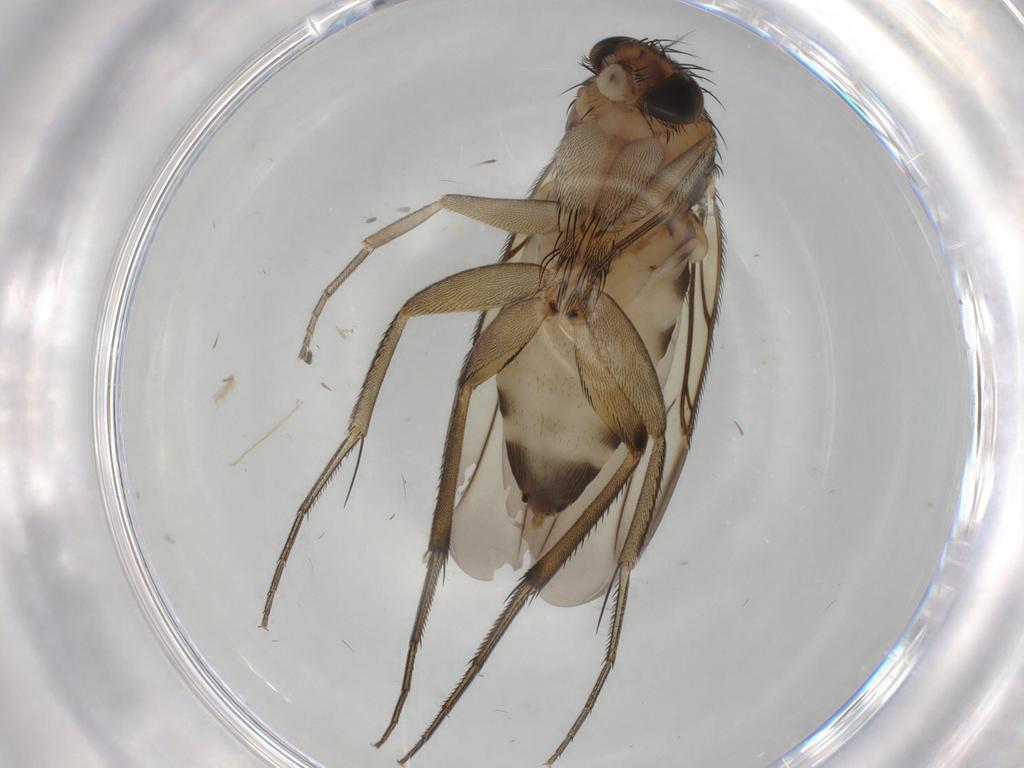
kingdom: Animalia
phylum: Arthropoda
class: Insecta
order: Diptera
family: Phoridae
